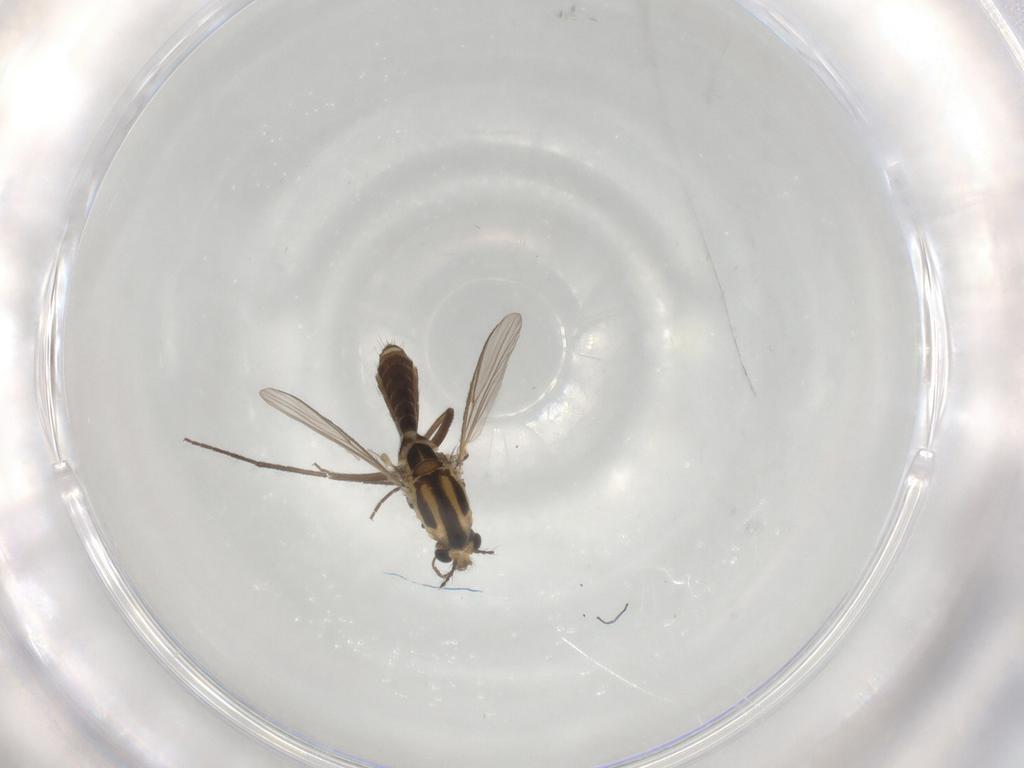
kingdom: Animalia
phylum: Arthropoda
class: Insecta
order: Diptera
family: Chironomidae
